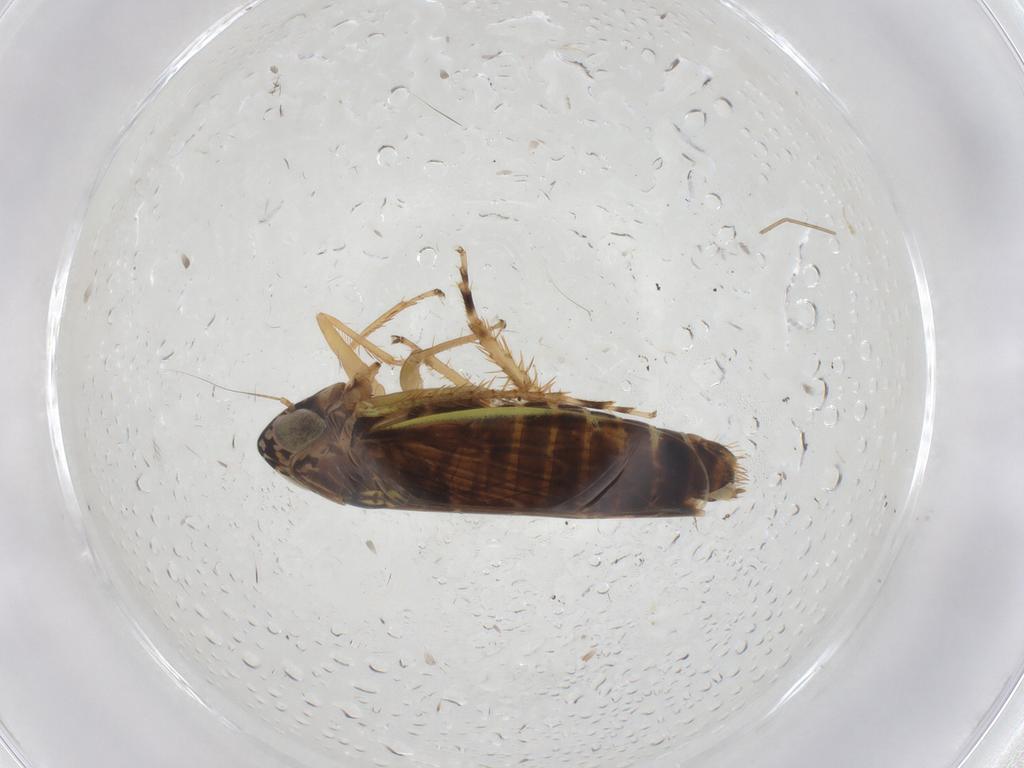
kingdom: Animalia
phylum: Arthropoda
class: Insecta
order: Hemiptera
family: Cicadellidae
